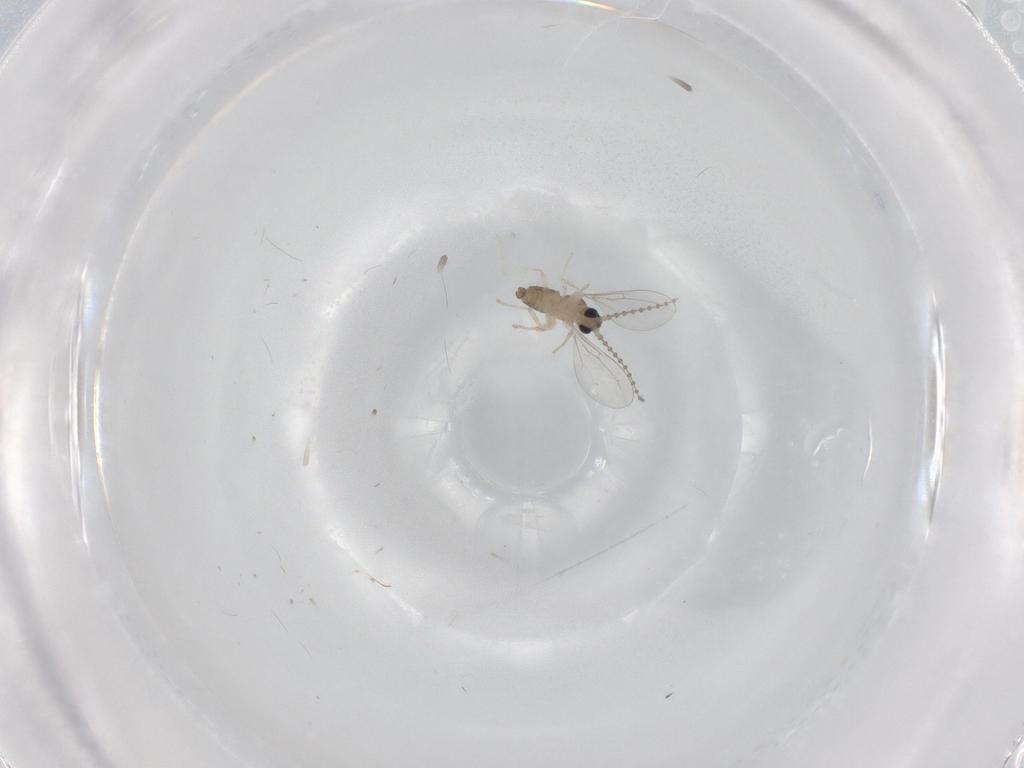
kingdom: Animalia
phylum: Arthropoda
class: Insecta
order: Diptera
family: Cecidomyiidae
